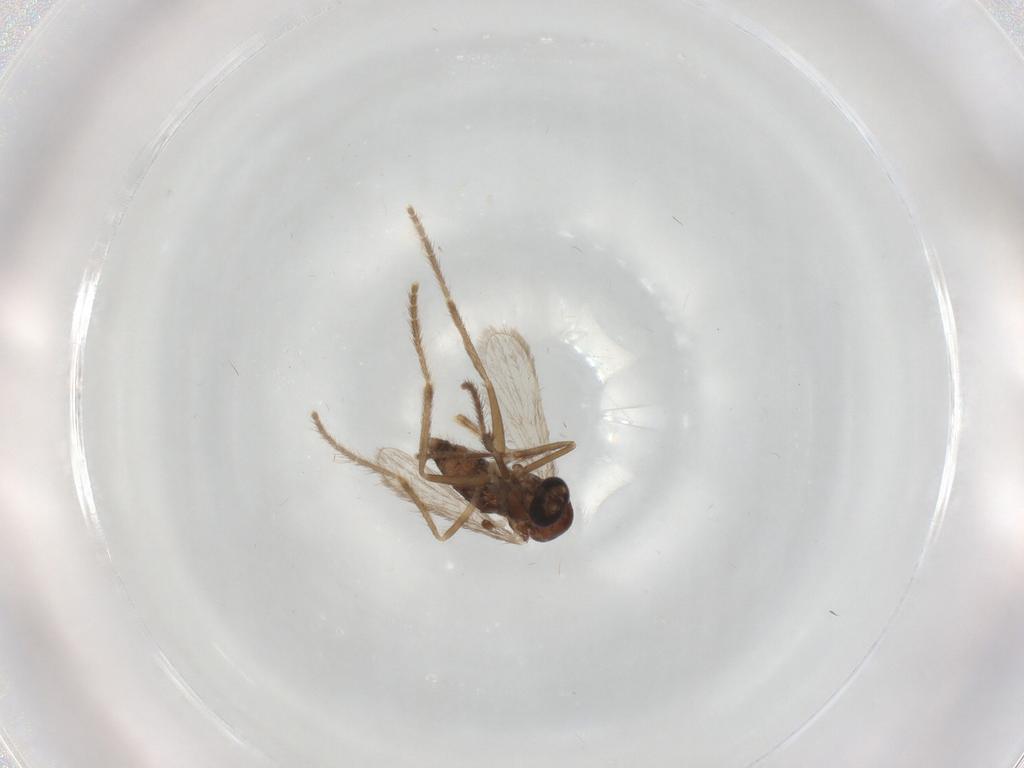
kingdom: Animalia
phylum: Arthropoda
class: Insecta
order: Diptera
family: Corethrellidae
